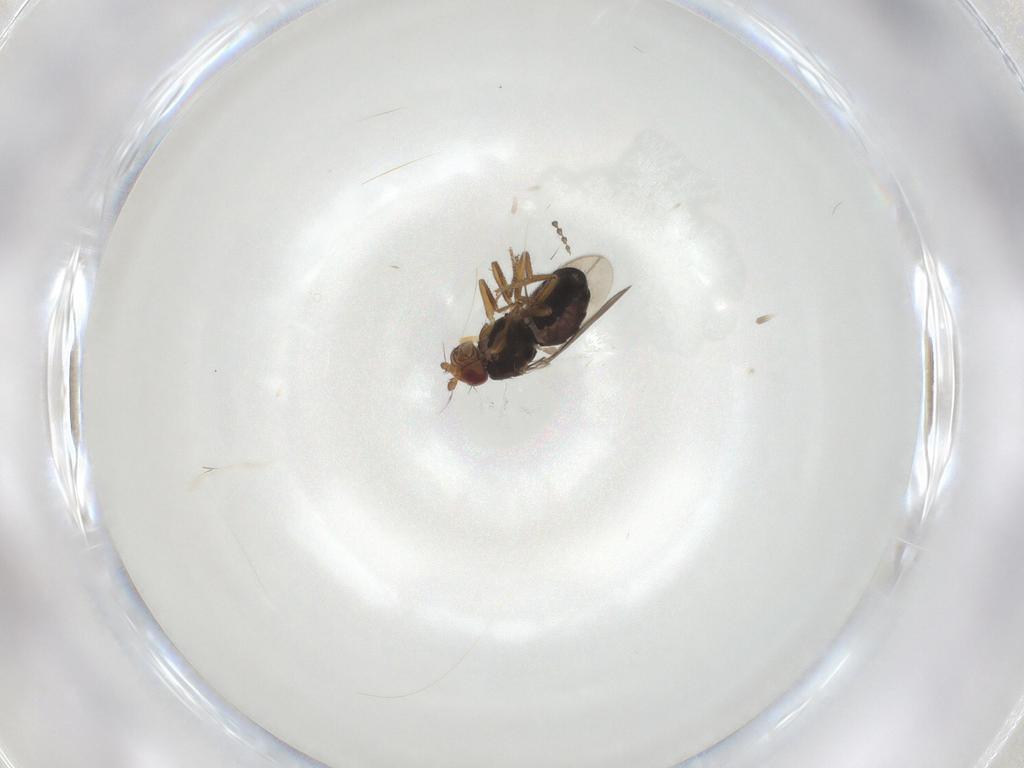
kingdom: Animalia
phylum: Arthropoda
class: Insecta
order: Diptera
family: Sphaeroceridae
